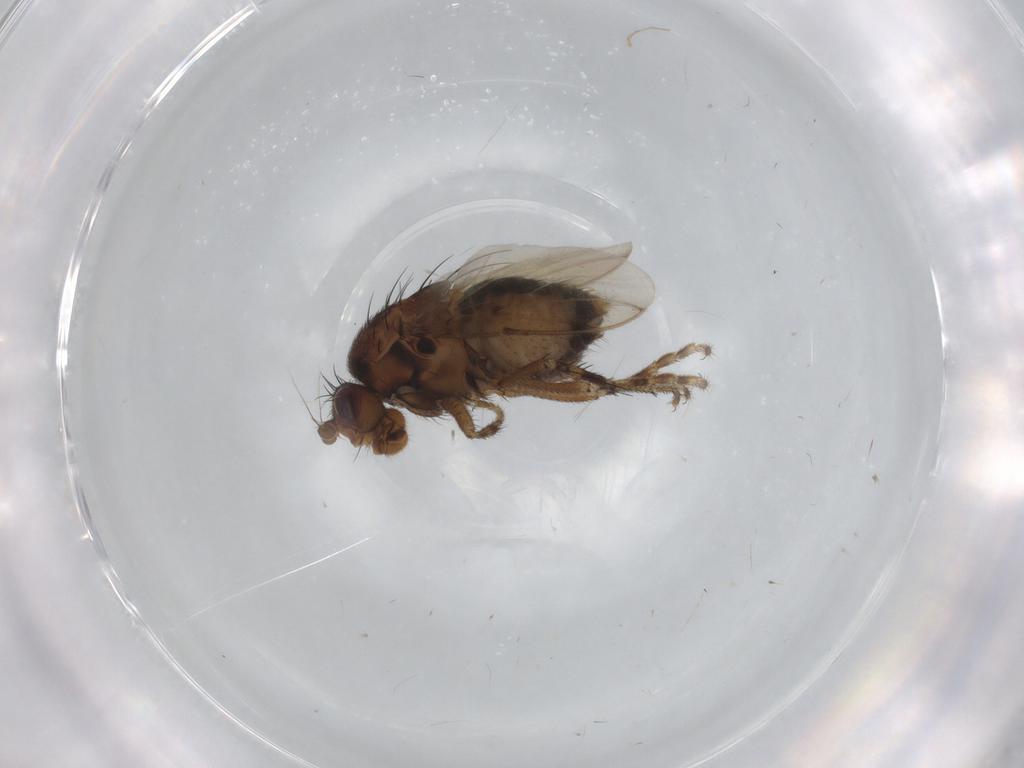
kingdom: Animalia
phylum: Arthropoda
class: Insecta
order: Diptera
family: Sphaeroceridae
